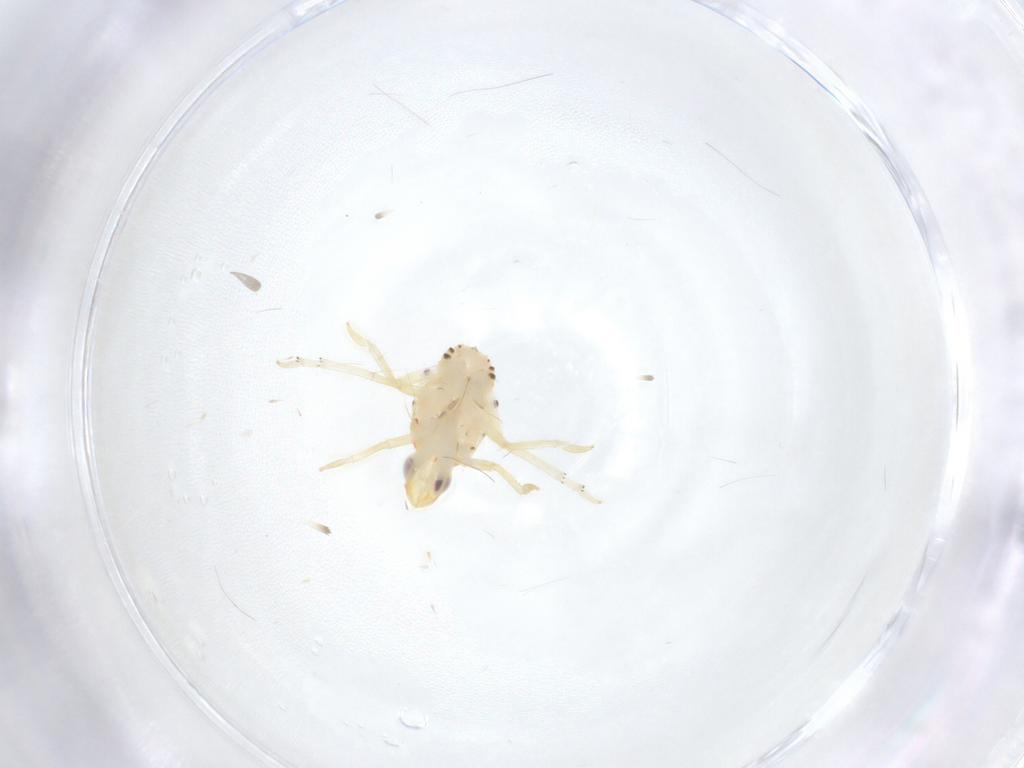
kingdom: Animalia
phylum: Arthropoda
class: Insecta
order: Hemiptera
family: Tropiduchidae
